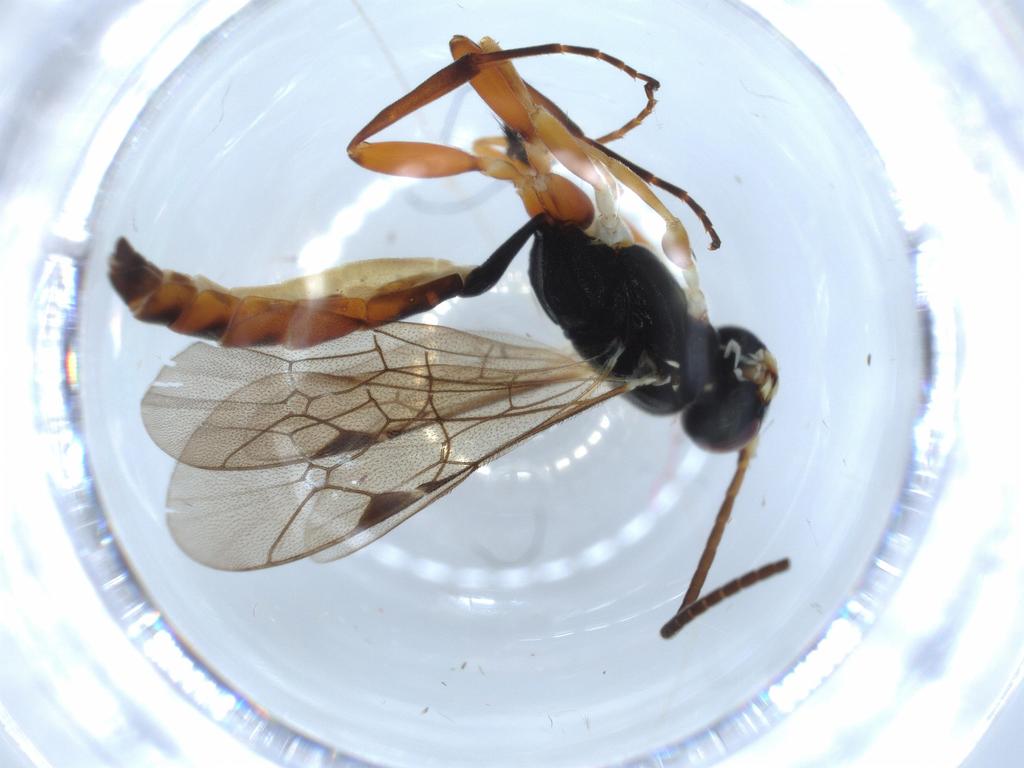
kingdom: Animalia
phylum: Arthropoda
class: Insecta
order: Hymenoptera
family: Ichneumonidae
